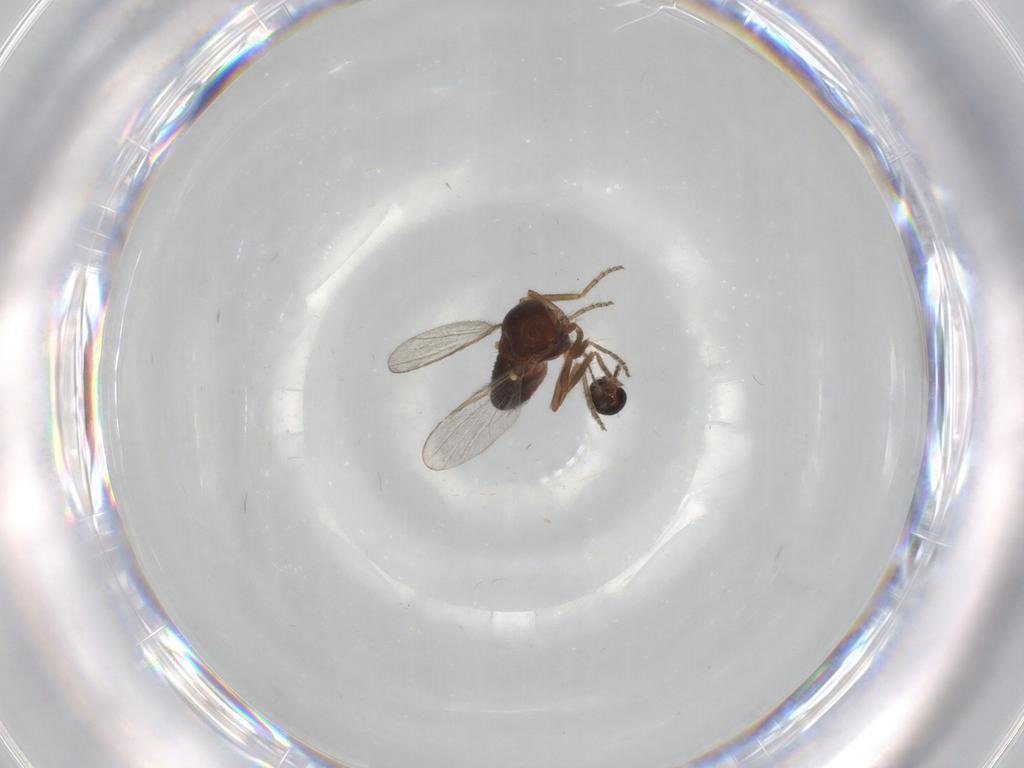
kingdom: Animalia
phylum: Arthropoda
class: Insecta
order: Diptera
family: Ceratopogonidae
